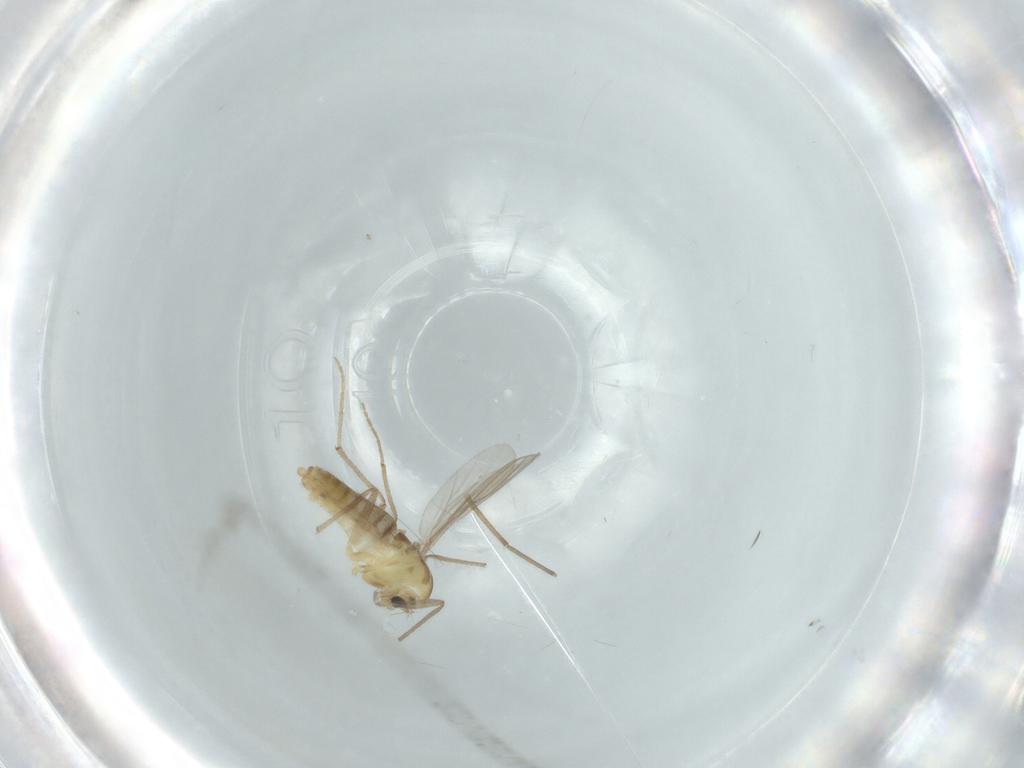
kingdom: Animalia
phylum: Arthropoda
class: Insecta
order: Diptera
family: Chironomidae
